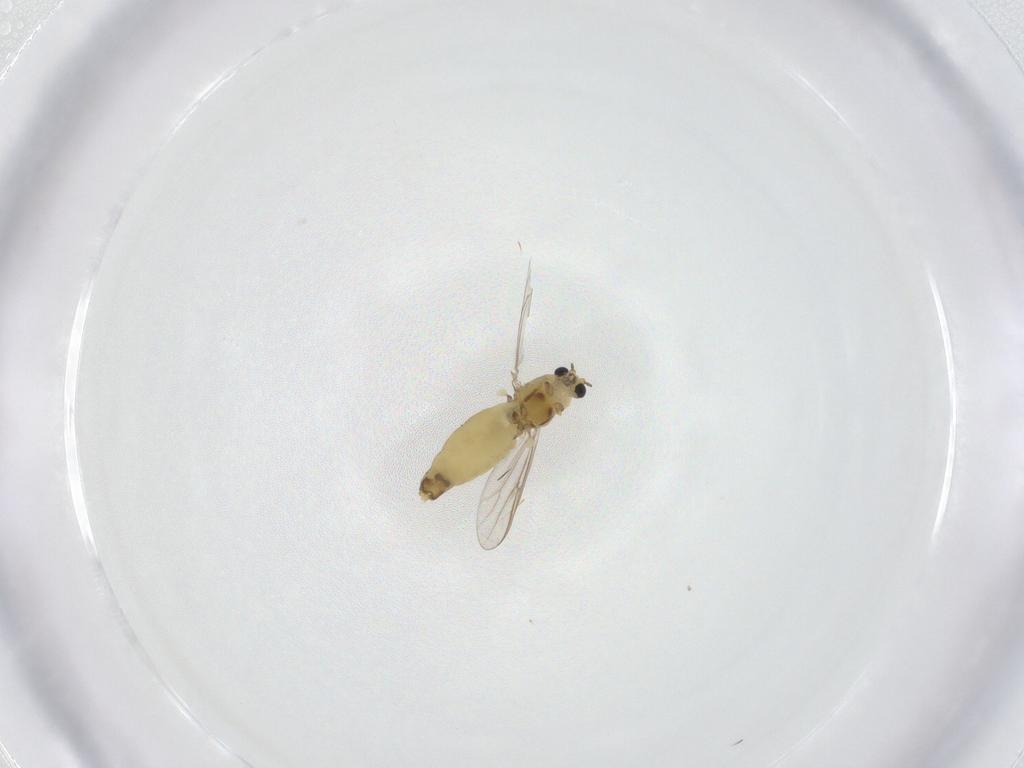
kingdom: Animalia
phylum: Arthropoda
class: Insecta
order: Diptera
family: Chironomidae
